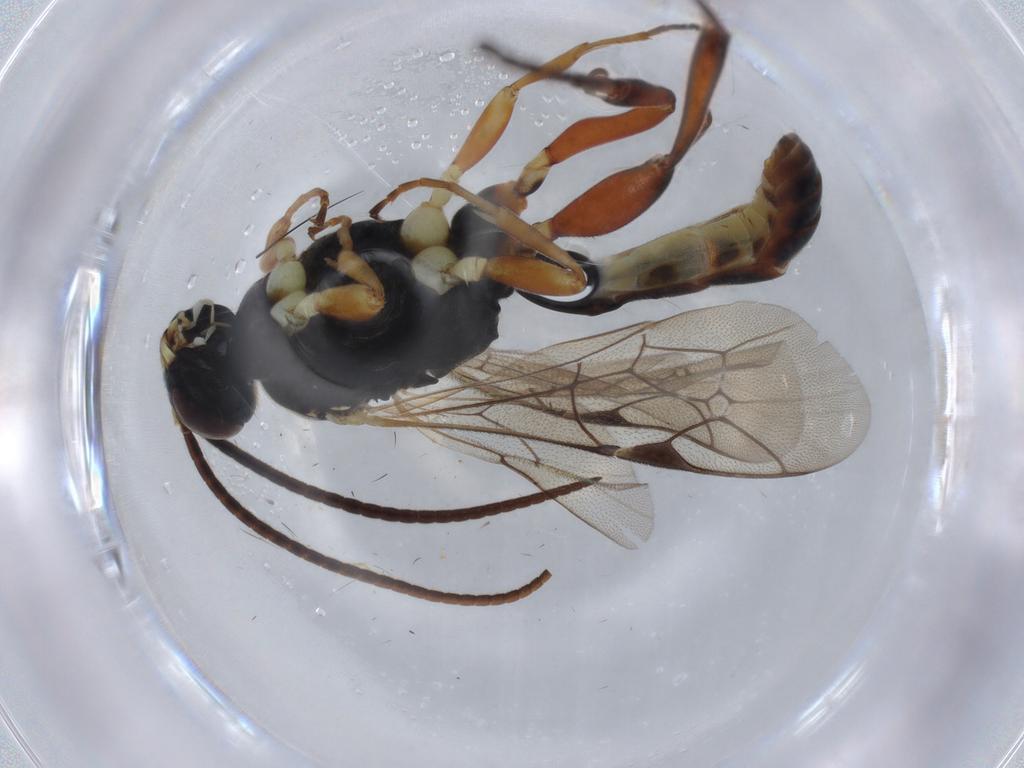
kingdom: Animalia
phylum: Arthropoda
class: Insecta
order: Hymenoptera
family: Ichneumonidae
